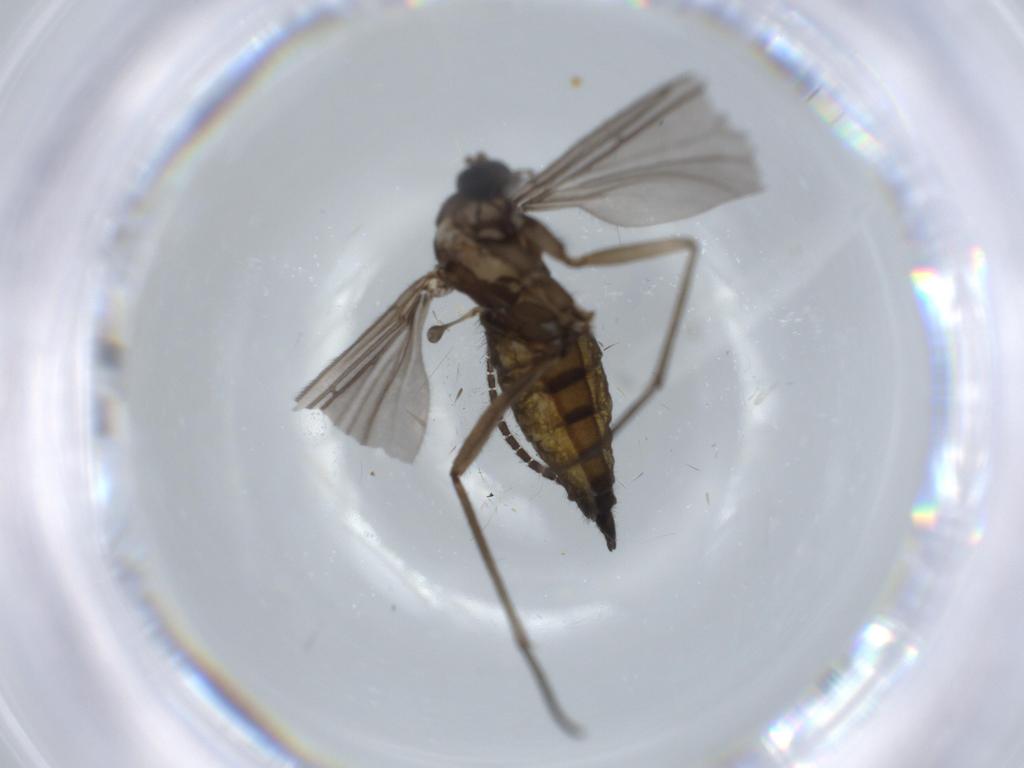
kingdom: Animalia
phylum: Arthropoda
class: Insecta
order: Diptera
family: Sciaridae
